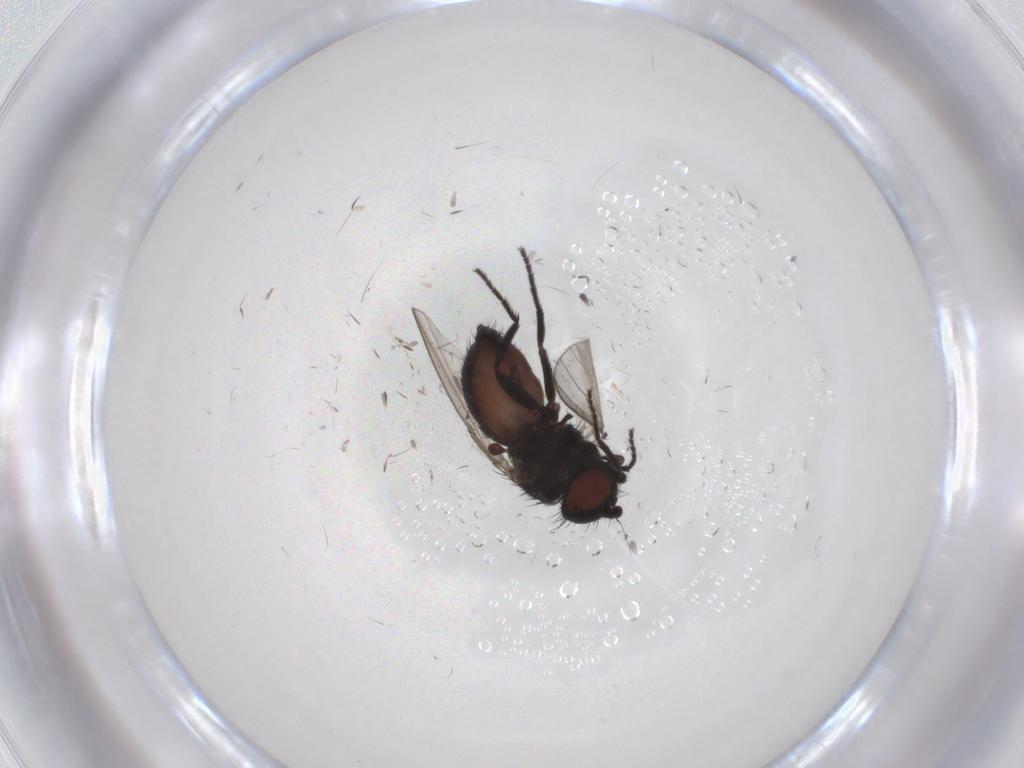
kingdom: Animalia
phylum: Arthropoda
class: Insecta
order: Diptera
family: Milichiidae
